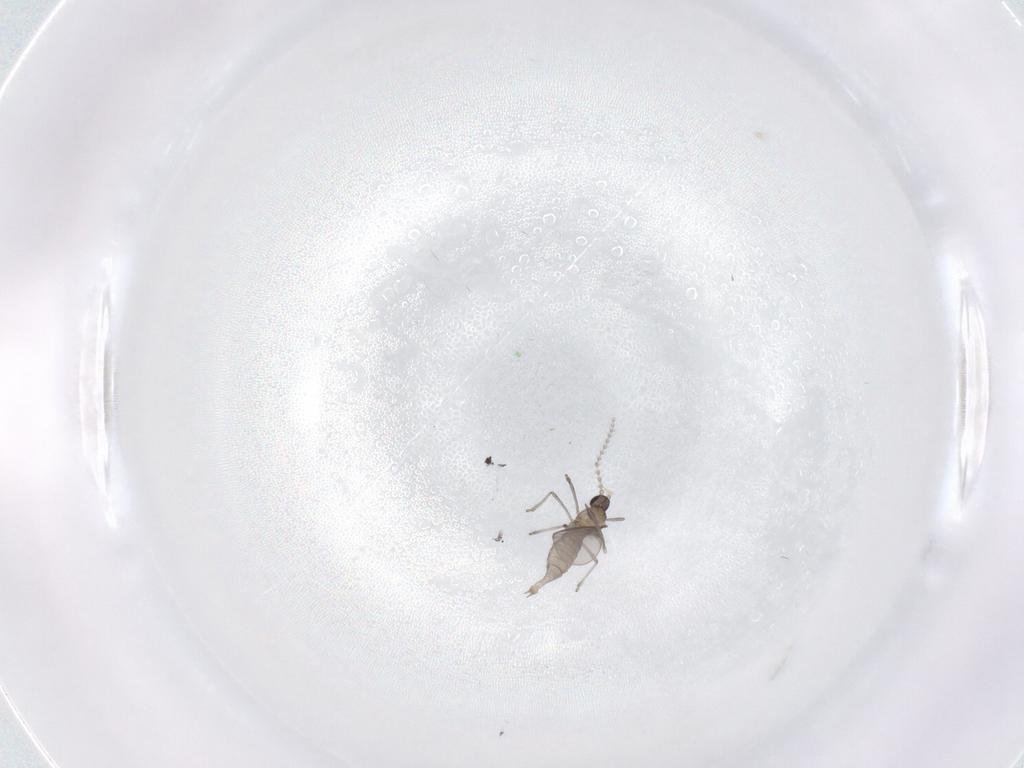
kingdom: Animalia
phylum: Arthropoda
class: Insecta
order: Diptera
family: Cecidomyiidae
